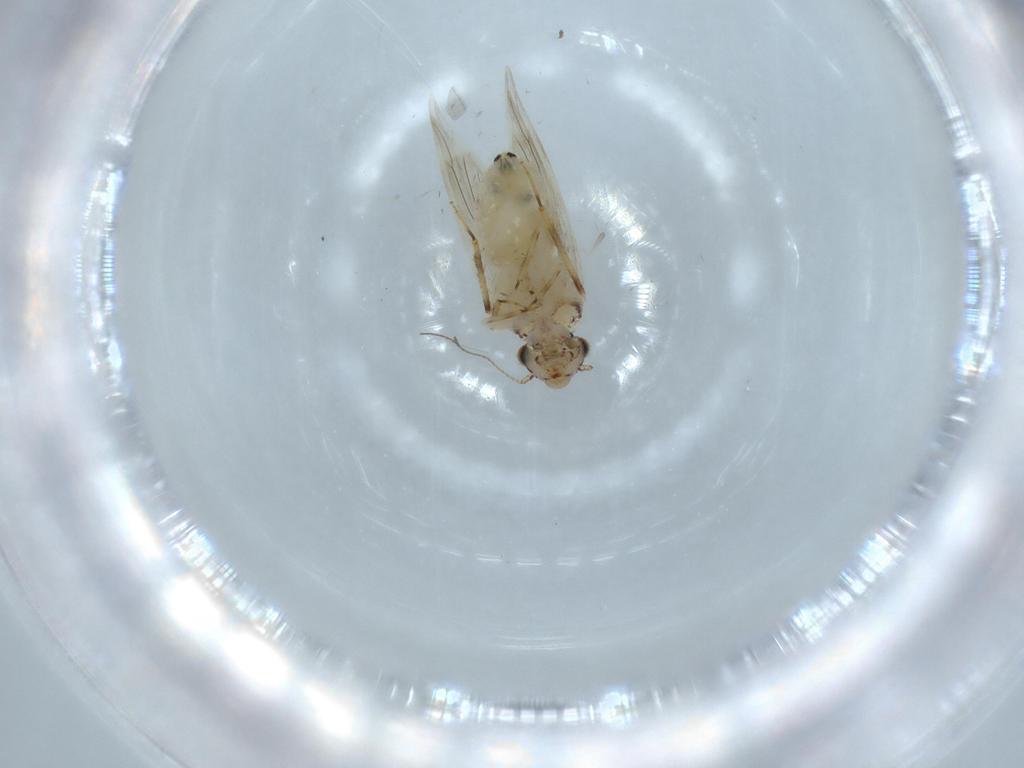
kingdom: Animalia
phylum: Arthropoda
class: Insecta
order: Psocodea
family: Lepidopsocidae
